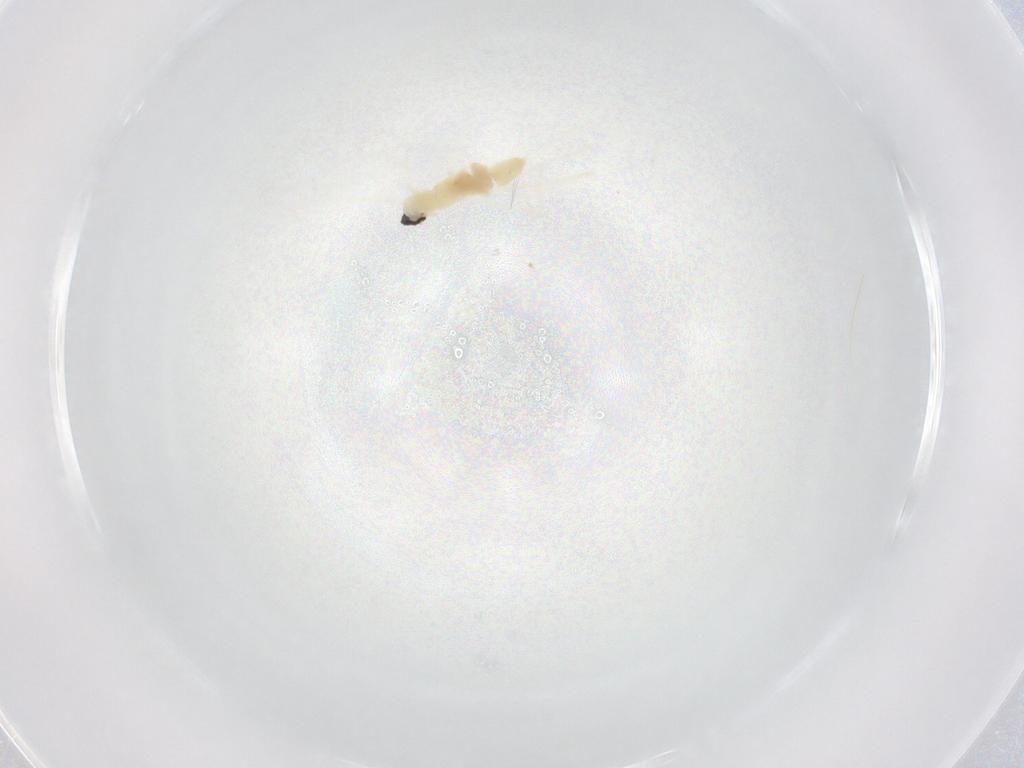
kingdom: Animalia
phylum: Arthropoda
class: Insecta
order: Diptera
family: Cecidomyiidae
